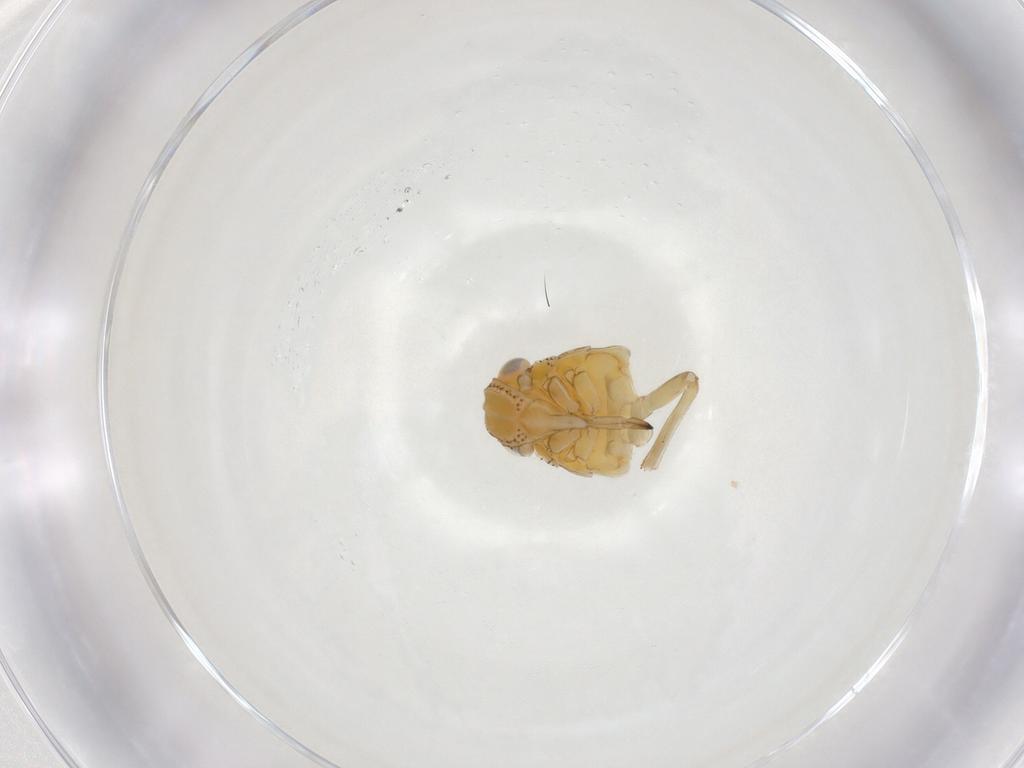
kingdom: Animalia
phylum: Arthropoda
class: Insecta
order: Hemiptera
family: Tropiduchidae
